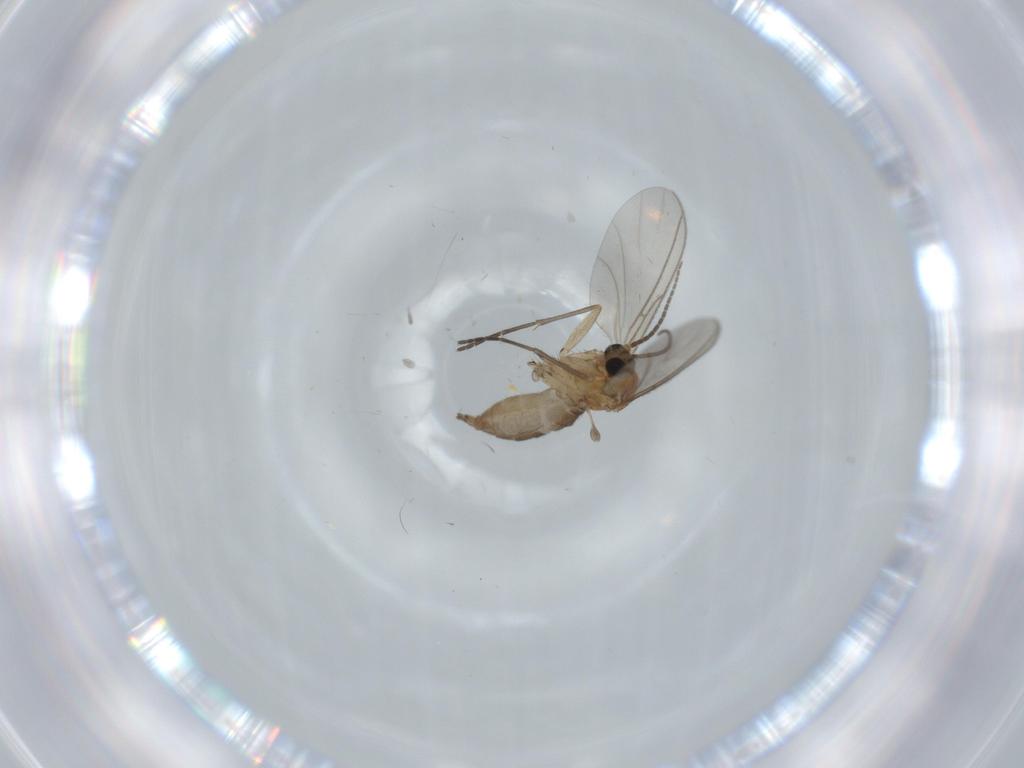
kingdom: Animalia
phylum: Arthropoda
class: Insecta
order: Diptera
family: Sciaridae
